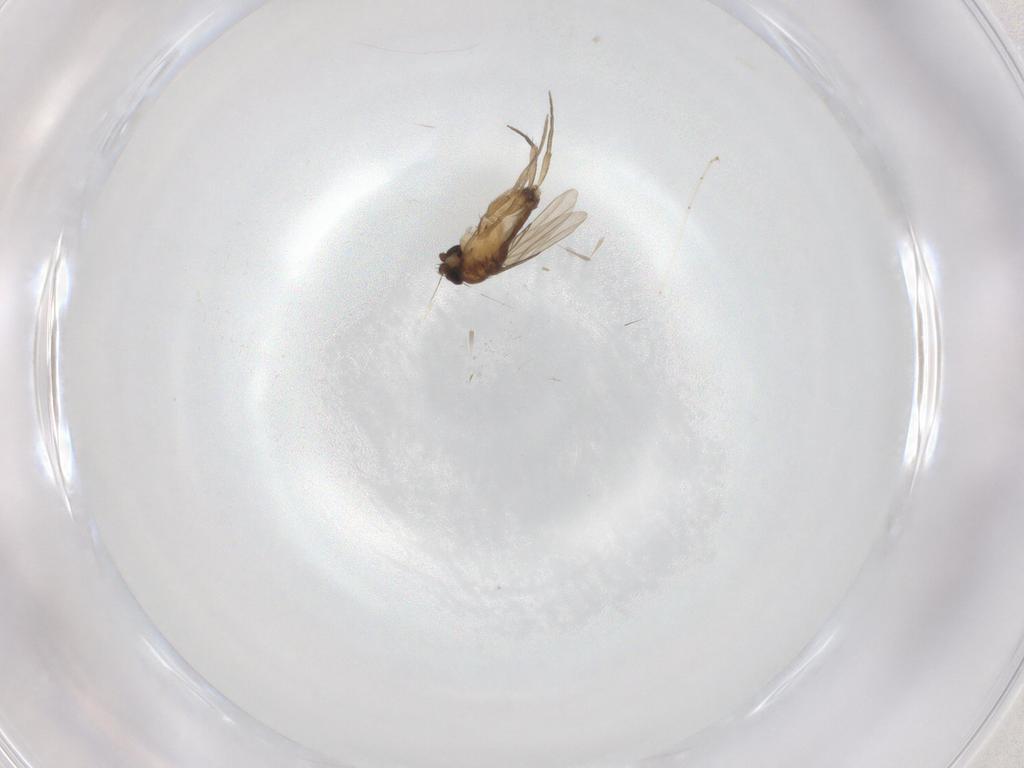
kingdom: Animalia
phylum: Arthropoda
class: Insecta
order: Diptera
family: Phoridae
